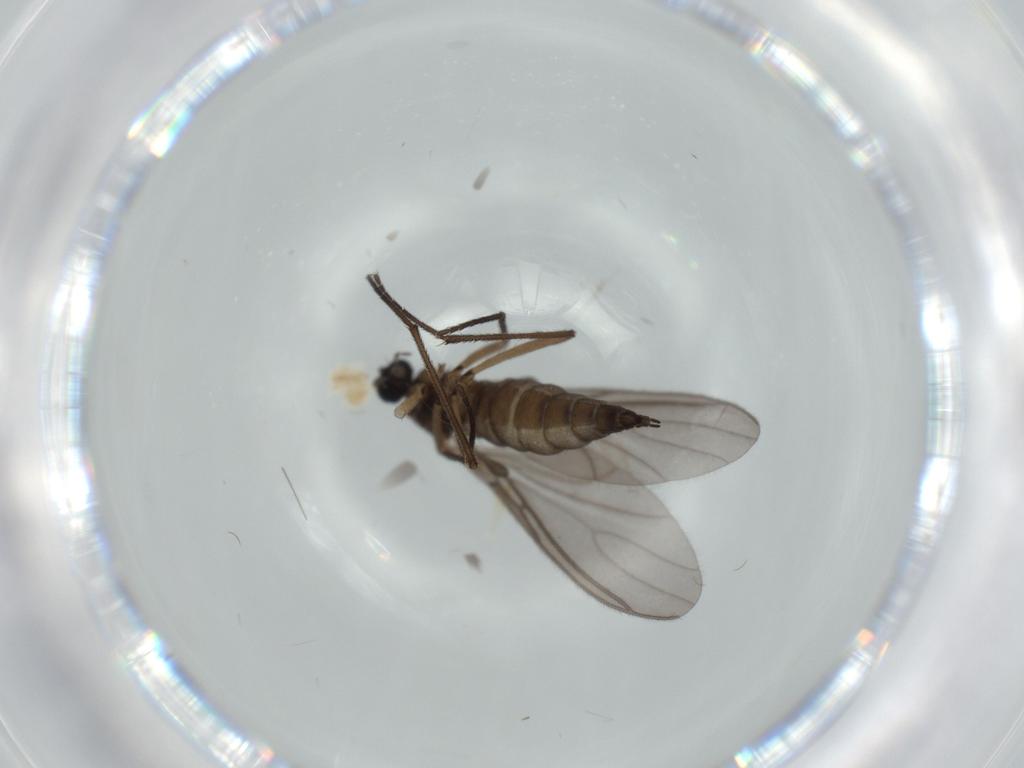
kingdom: Animalia
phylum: Arthropoda
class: Insecta
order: Diptera
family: Sciaridae
